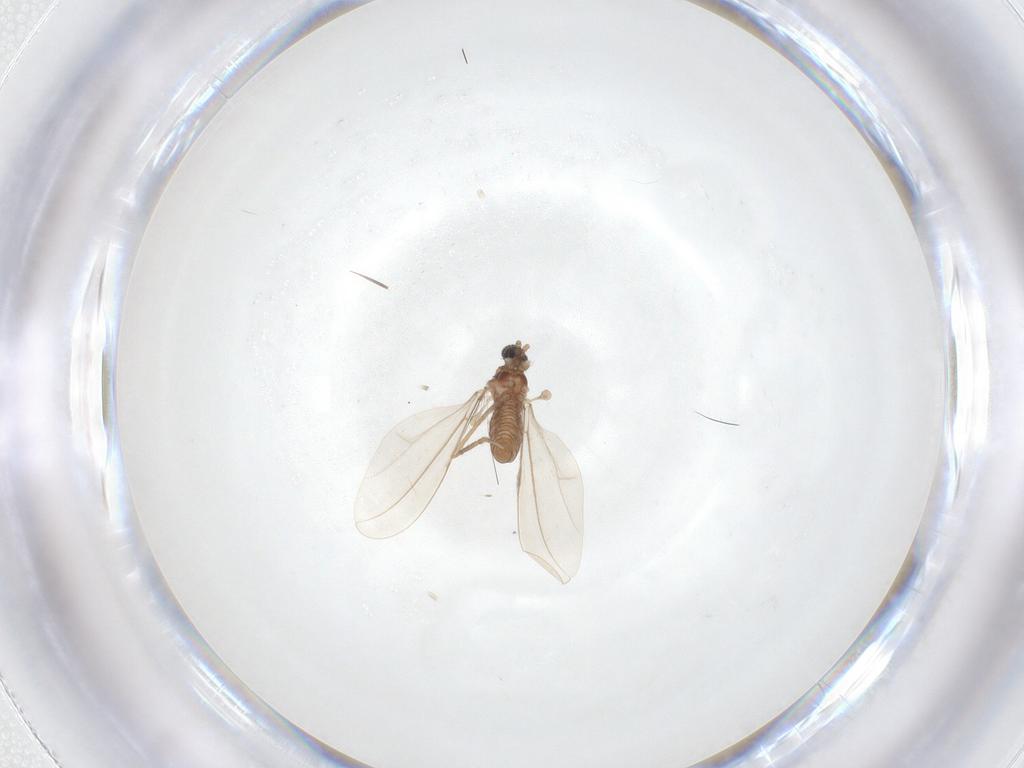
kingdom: Animalia
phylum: Arthropoda
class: Insecta
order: Diptera
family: Cecidomyiidae
